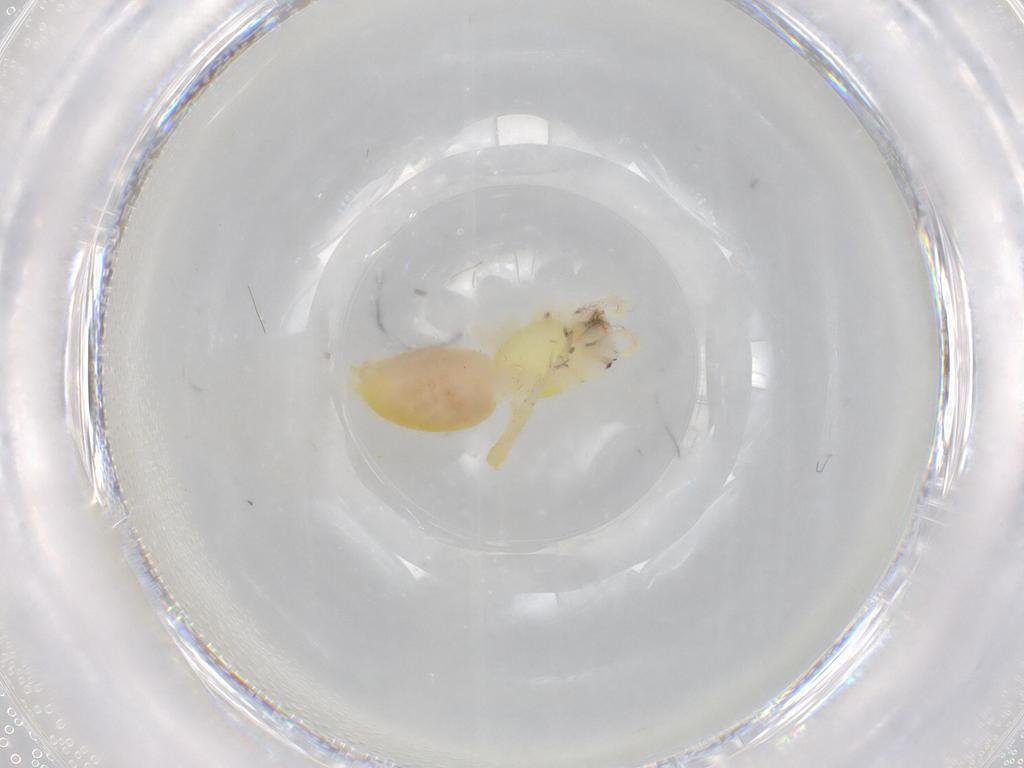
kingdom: Animalia
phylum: Arthropoda
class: Arachnida
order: Araneae
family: Anyphaenidae
